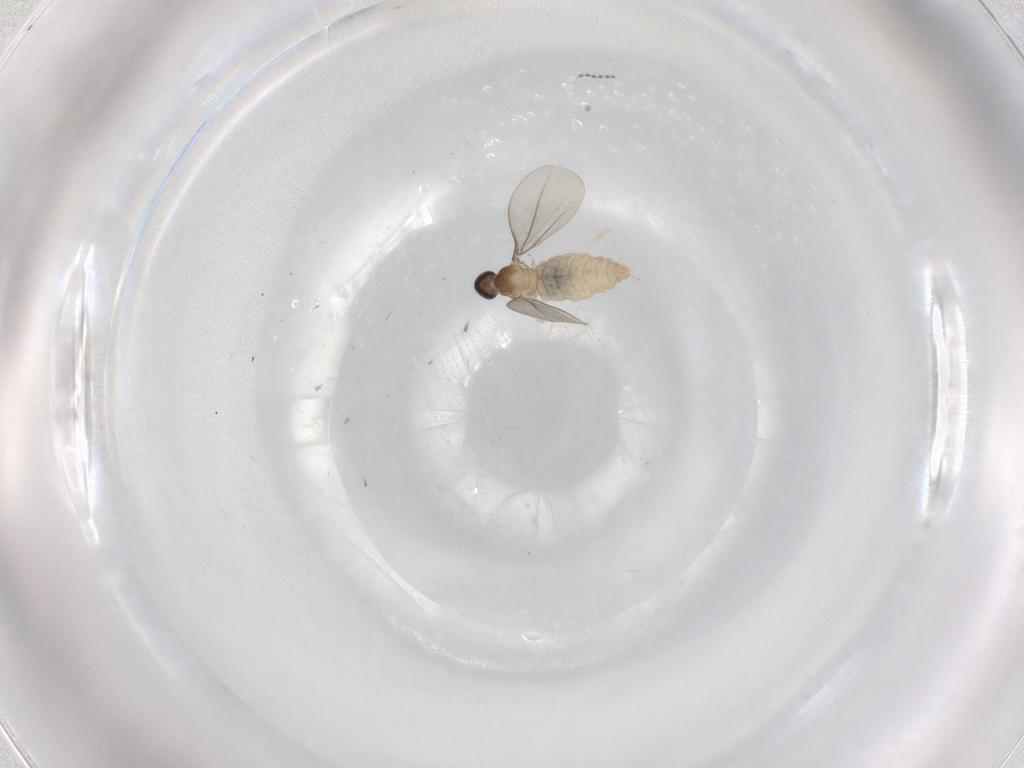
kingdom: Animalia
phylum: Arthropoda
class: Insecta
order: Diptera
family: Cecidomyiidae
